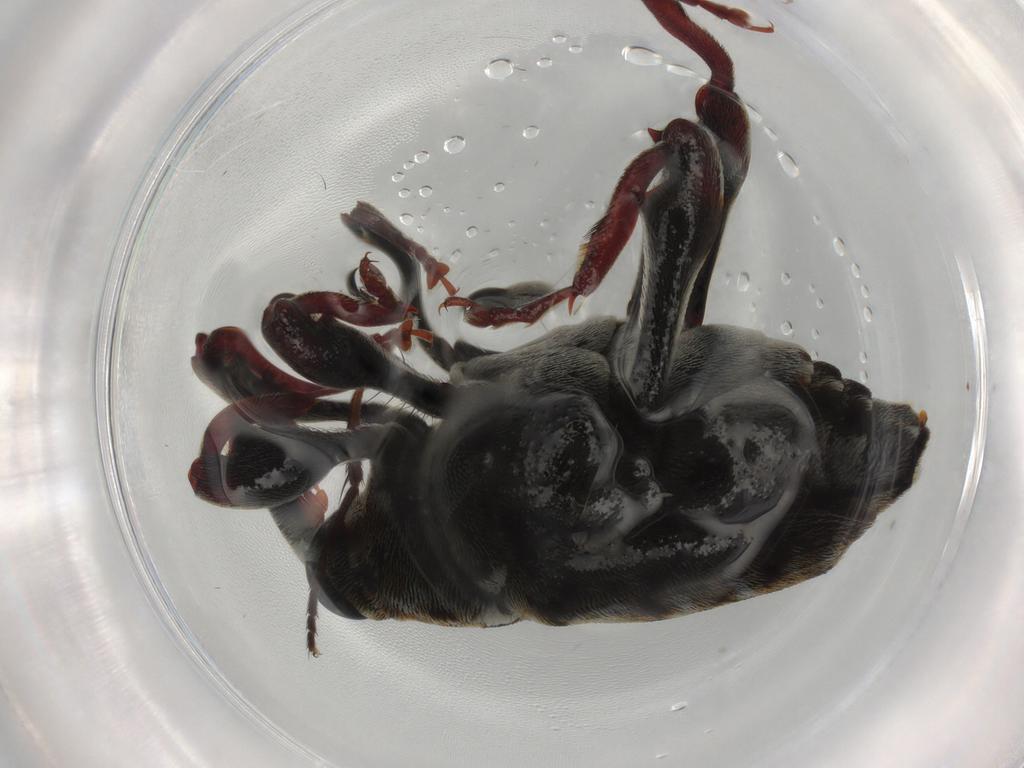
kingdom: Animalia
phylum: Arthropoda
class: Insecta
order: Coleoptera
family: Curculionidae
